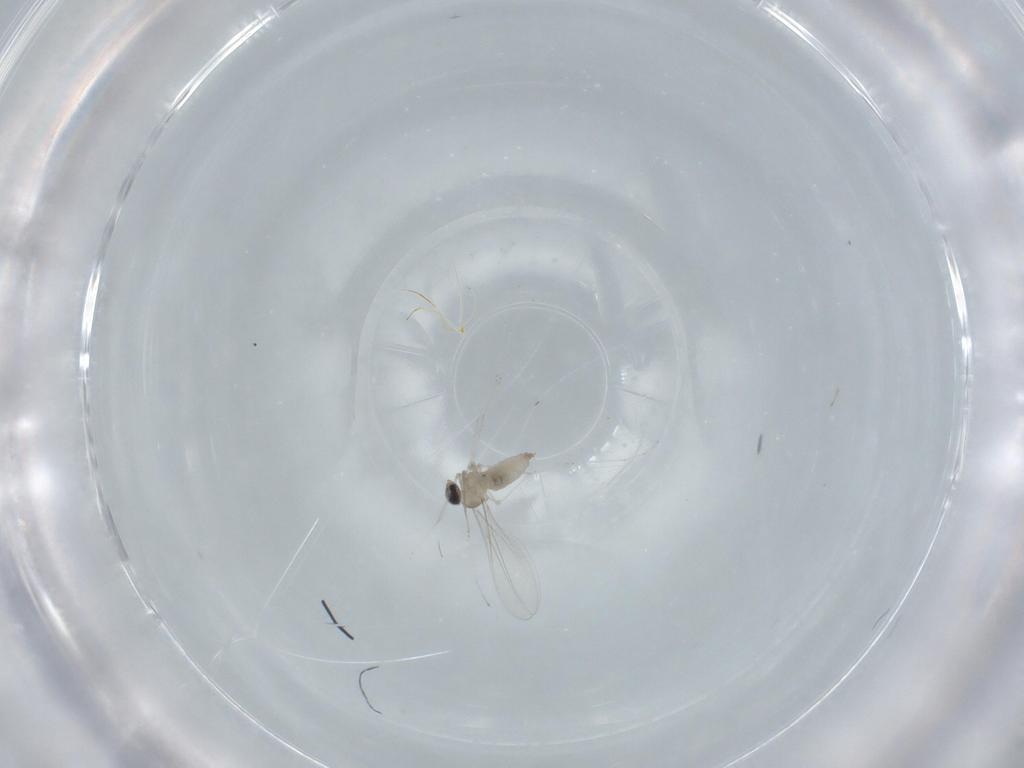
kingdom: Animalia
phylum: Arthropoda
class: Insecta
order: Diptera
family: Cecidomyiidae
